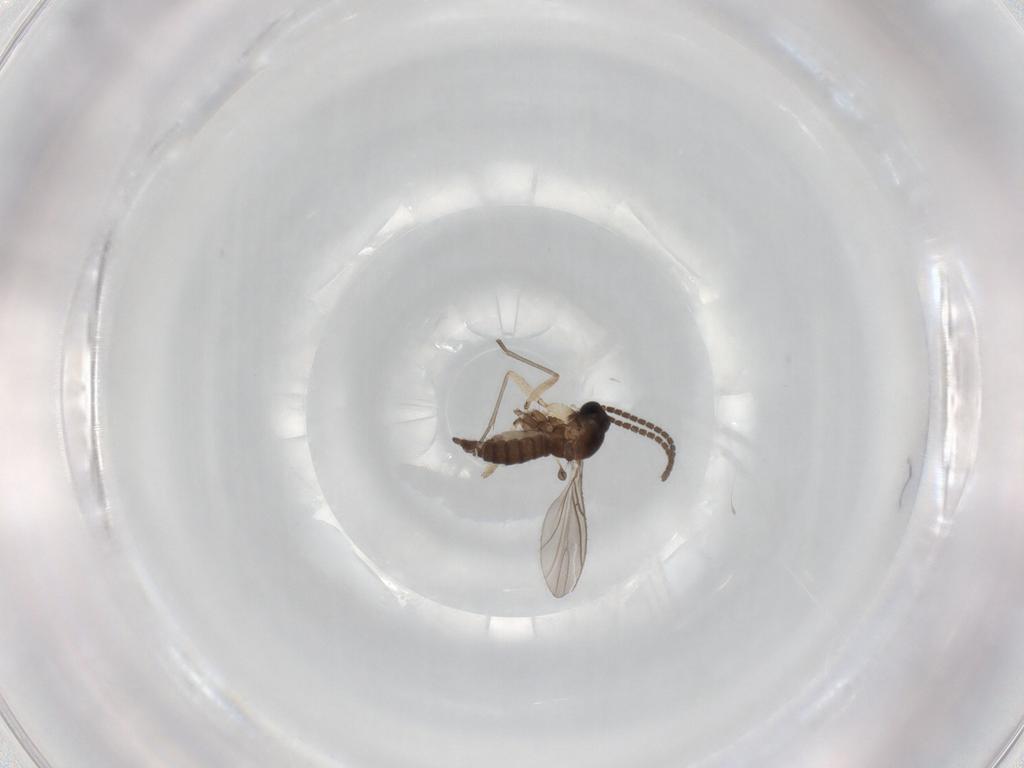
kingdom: Animalia
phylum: Arthropoda
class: Insecta
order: Diptera
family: Sciaridae
